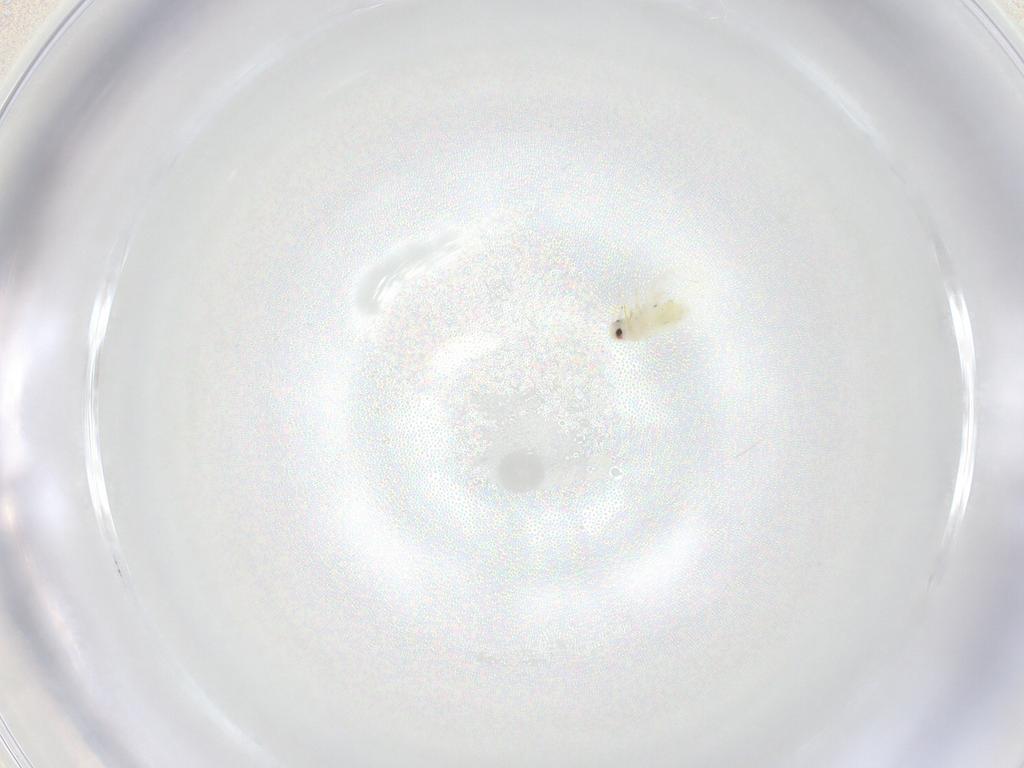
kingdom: Animalia
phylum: Arthropoda
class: Insecta
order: Hemiptera
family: Aleyrodidae
